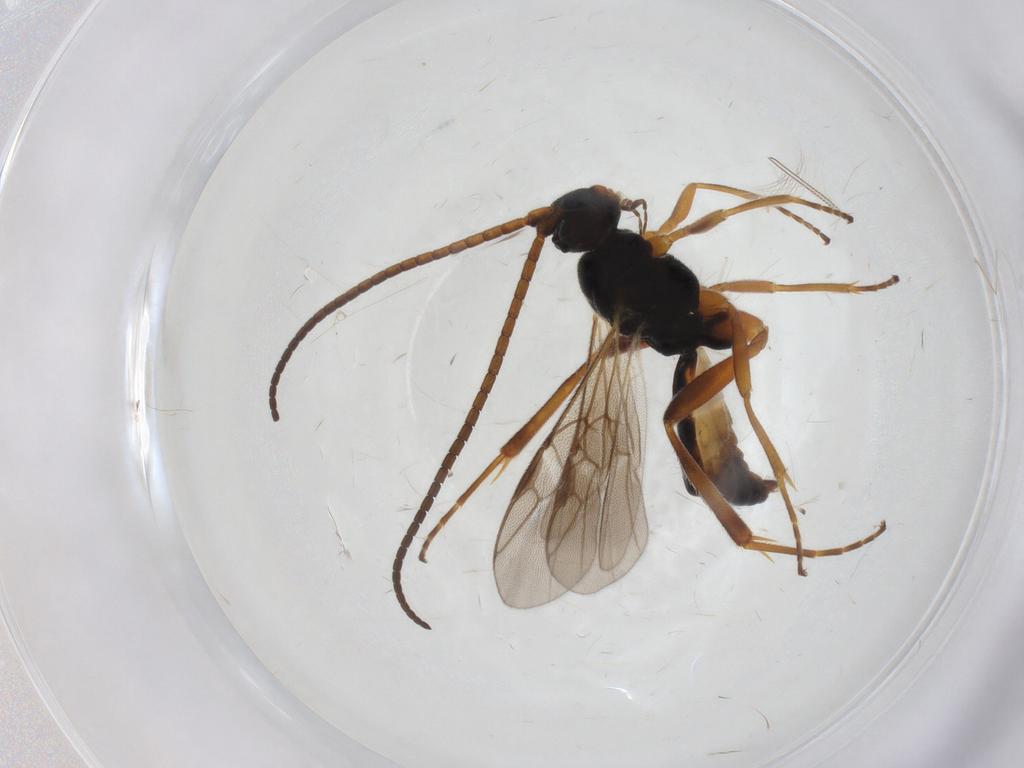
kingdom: Animalia
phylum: Arthropoda
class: Insecta
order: Hymenoptera
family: Braconidae
